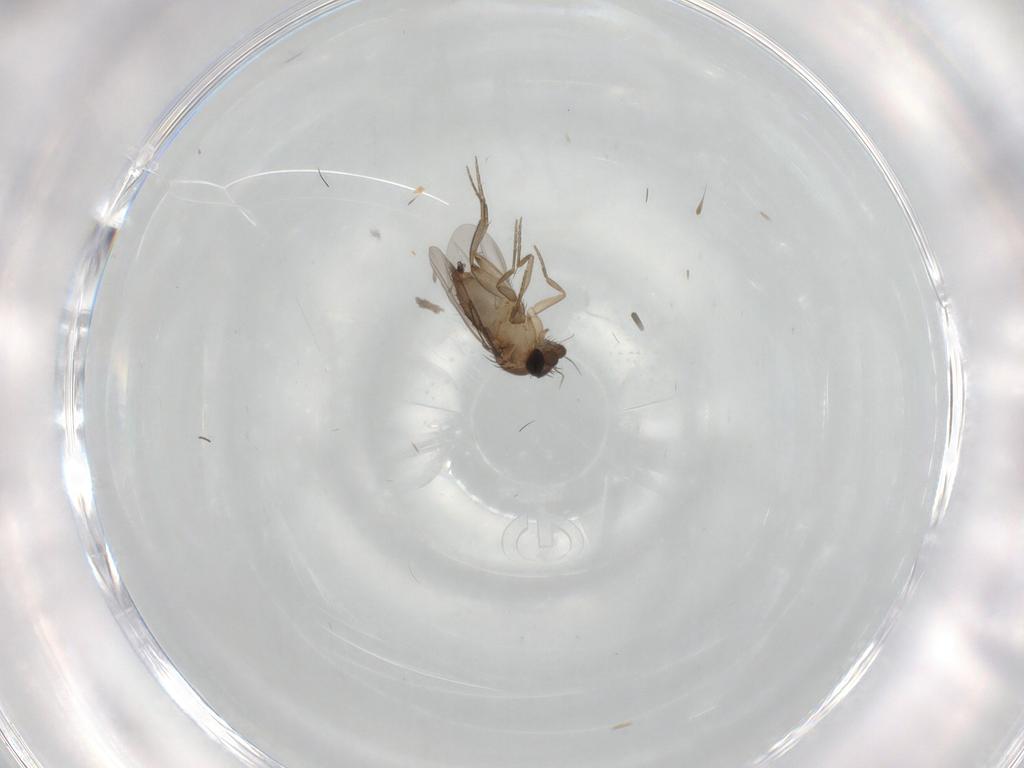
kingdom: Animalia
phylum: Arthropoda
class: Insecta
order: Diptera
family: Phoridae
